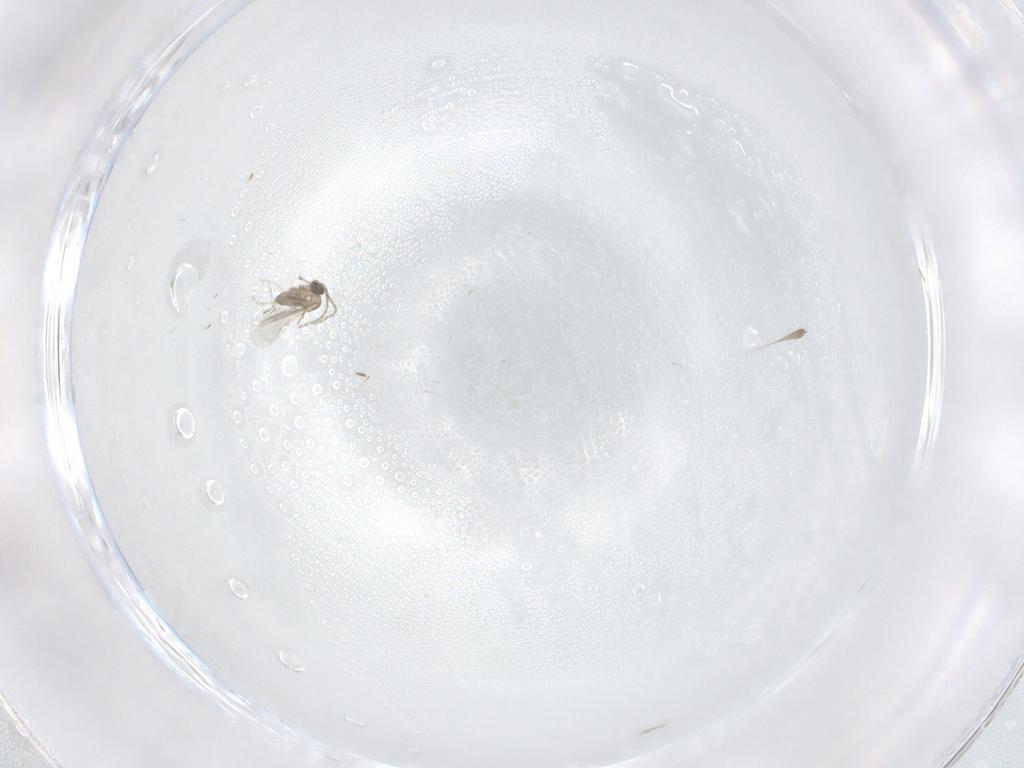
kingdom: Animalia
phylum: Arthropoda
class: Insecta
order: Diptera
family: Cecidomyiidae
